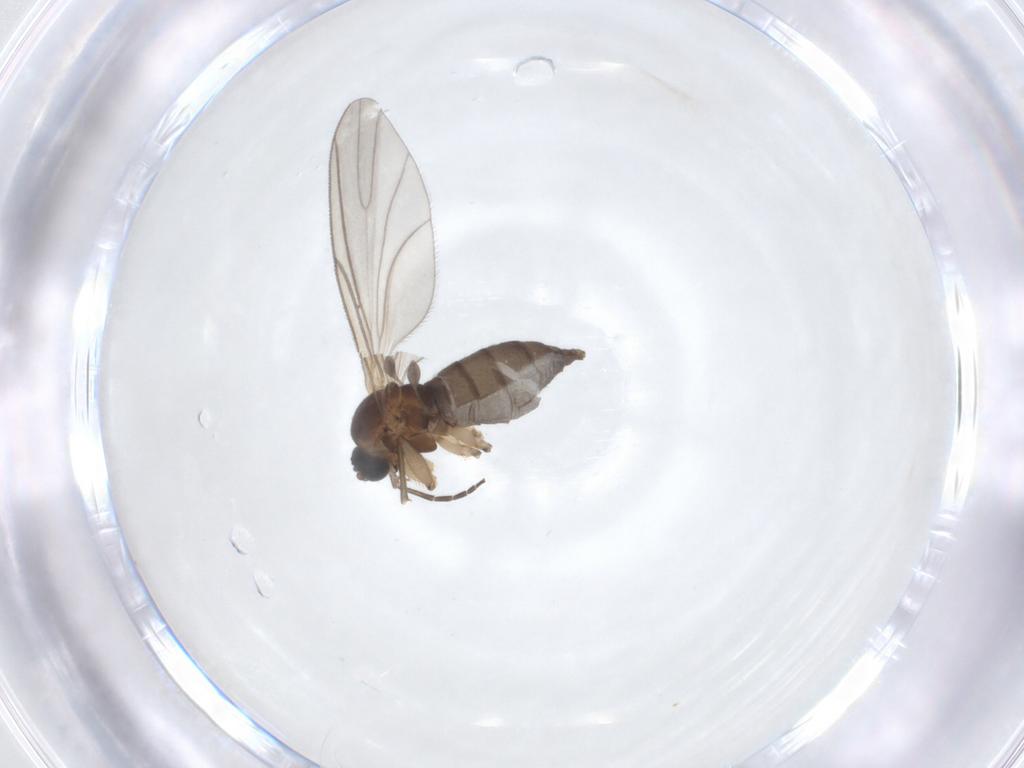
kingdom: Animalia
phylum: Arthropoda
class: Insecta
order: Diptera
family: Sciaridae
